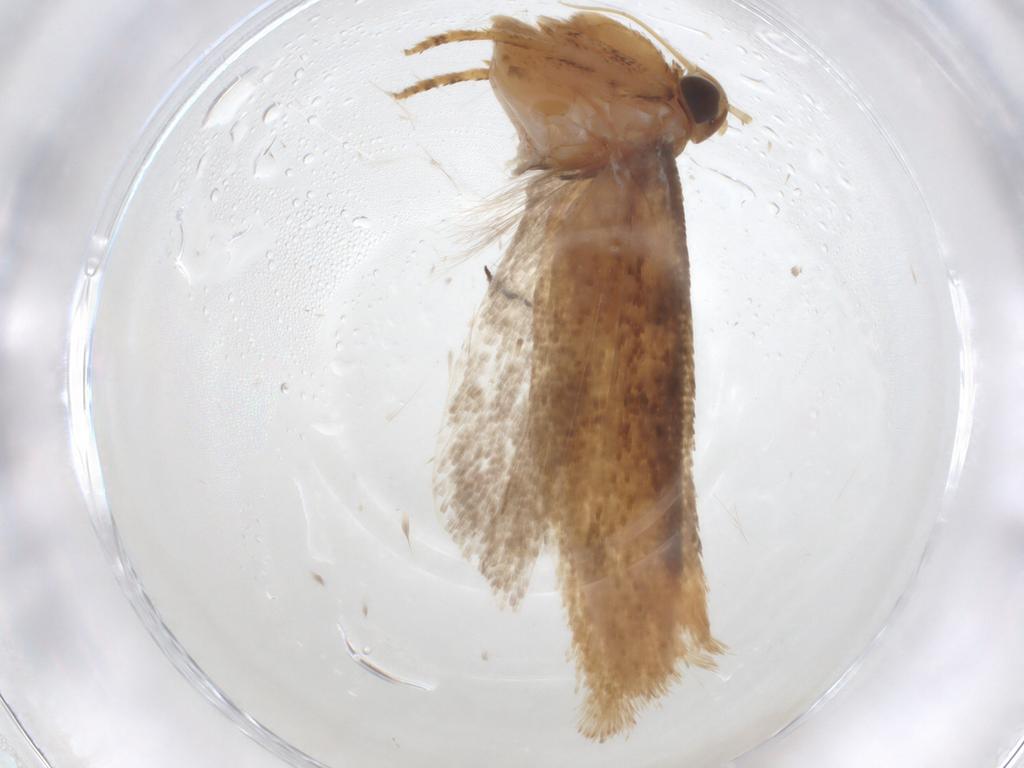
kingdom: Animalia
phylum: Arthropoda
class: Insecta
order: Lepidoptera
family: Gelechiidae
